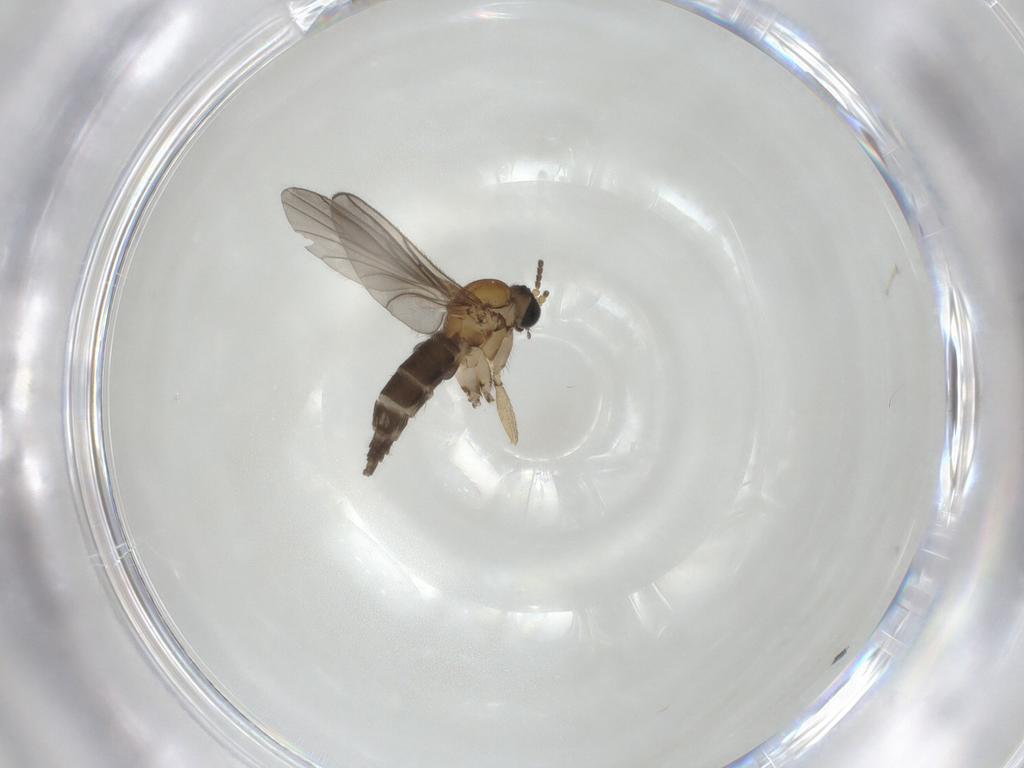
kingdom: Animalia
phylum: Arthropoda
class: Insecta
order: Diptera
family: Sciaridae
